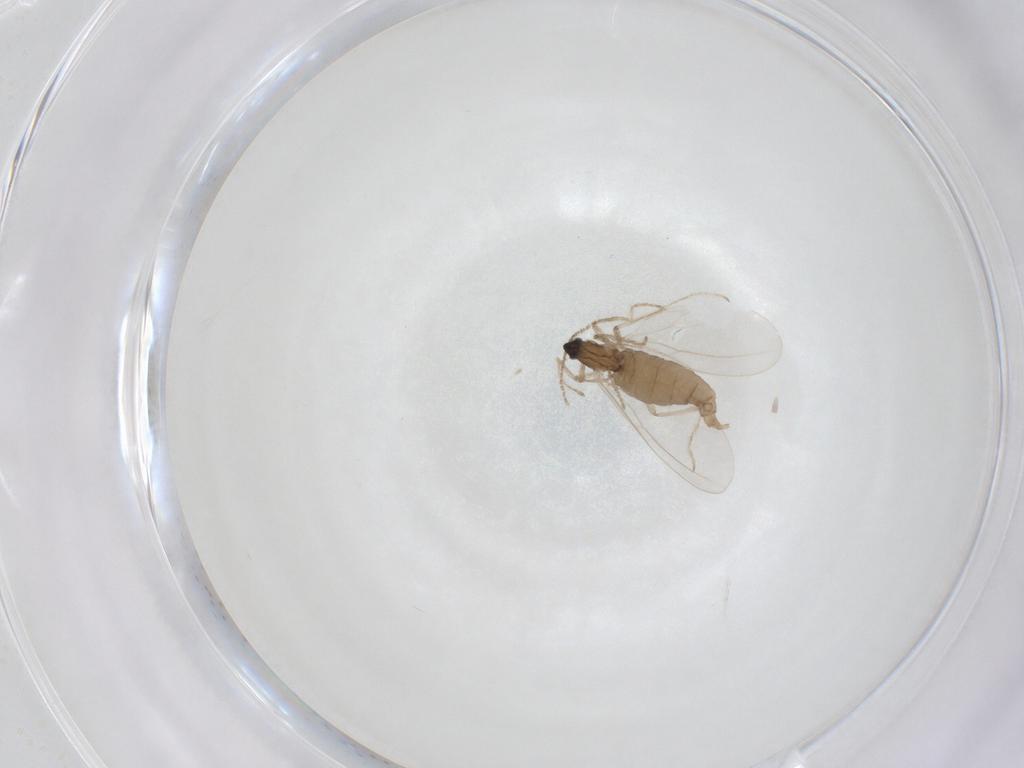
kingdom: Animalia
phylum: Arthropoda
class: Insecta
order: Diptera
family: Cecidomyiidae
